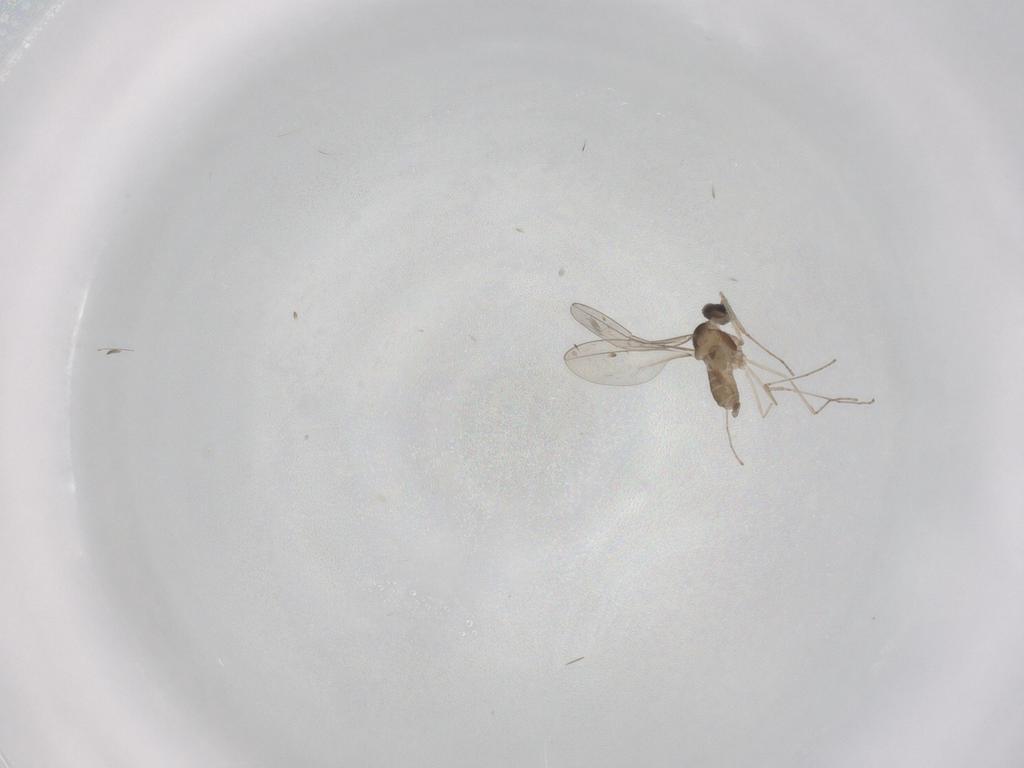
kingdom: Animalia
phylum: Arthropoda
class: Insecta
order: Diptera
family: Cecidomyiidae
